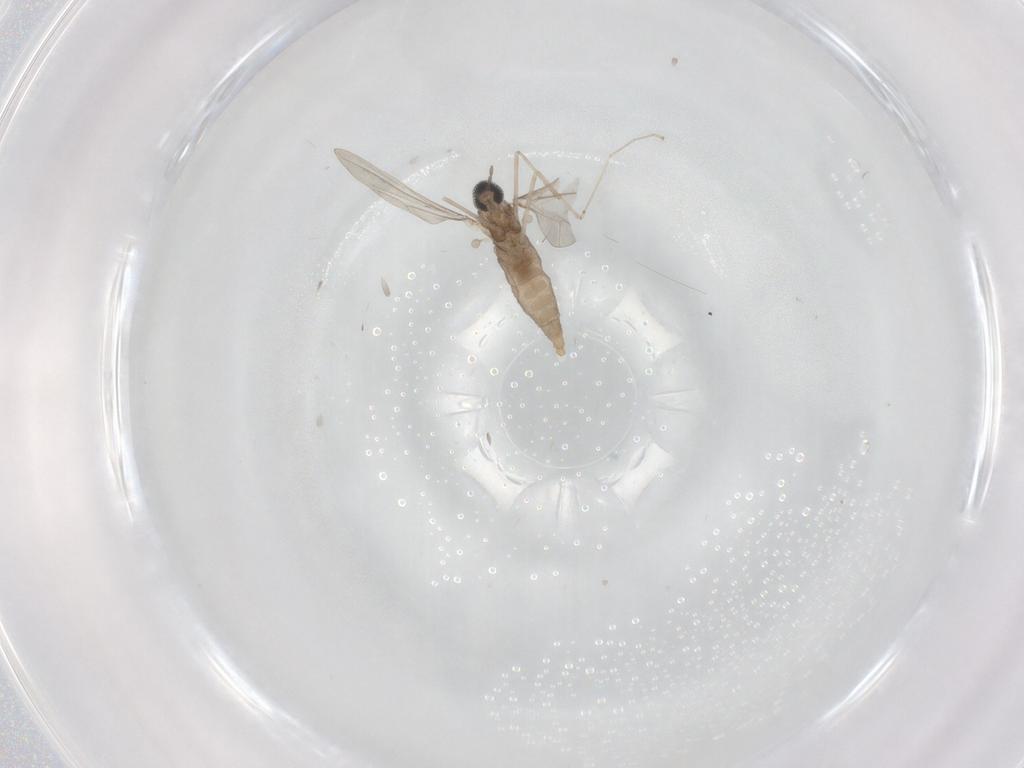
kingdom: Animalia
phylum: Arthropoda
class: Insecta
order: Diptera
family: Cecidomyiidae
